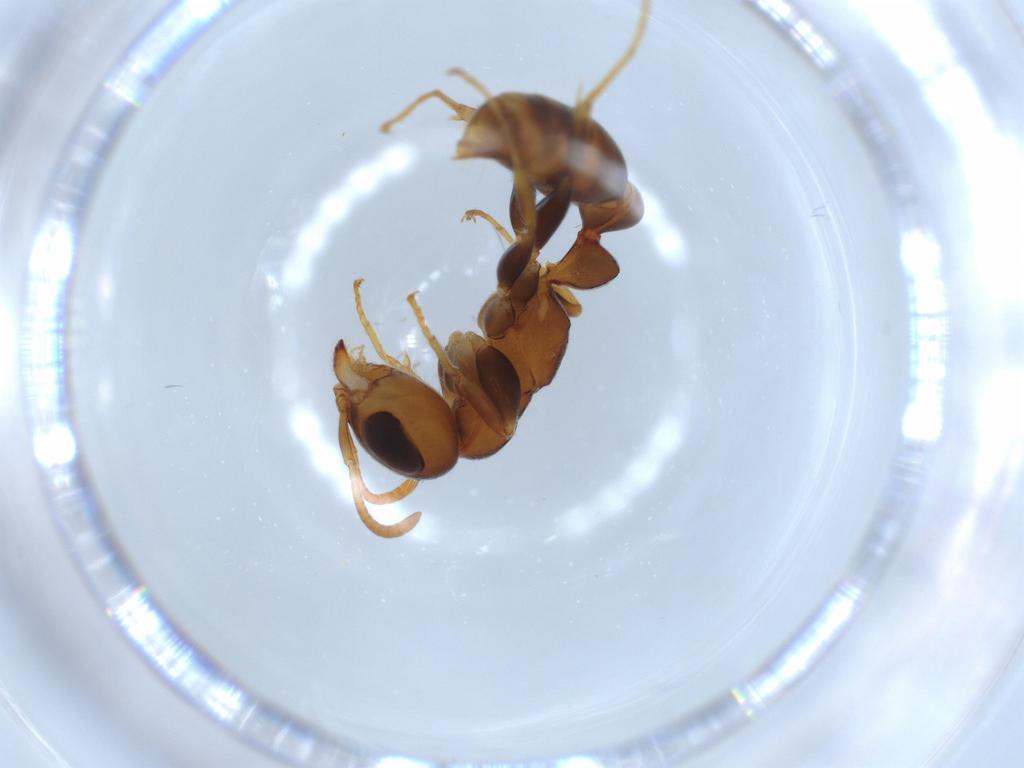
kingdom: Animalia
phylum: Arthropoda
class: Insecta
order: Hymenoptera
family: Formicidae
